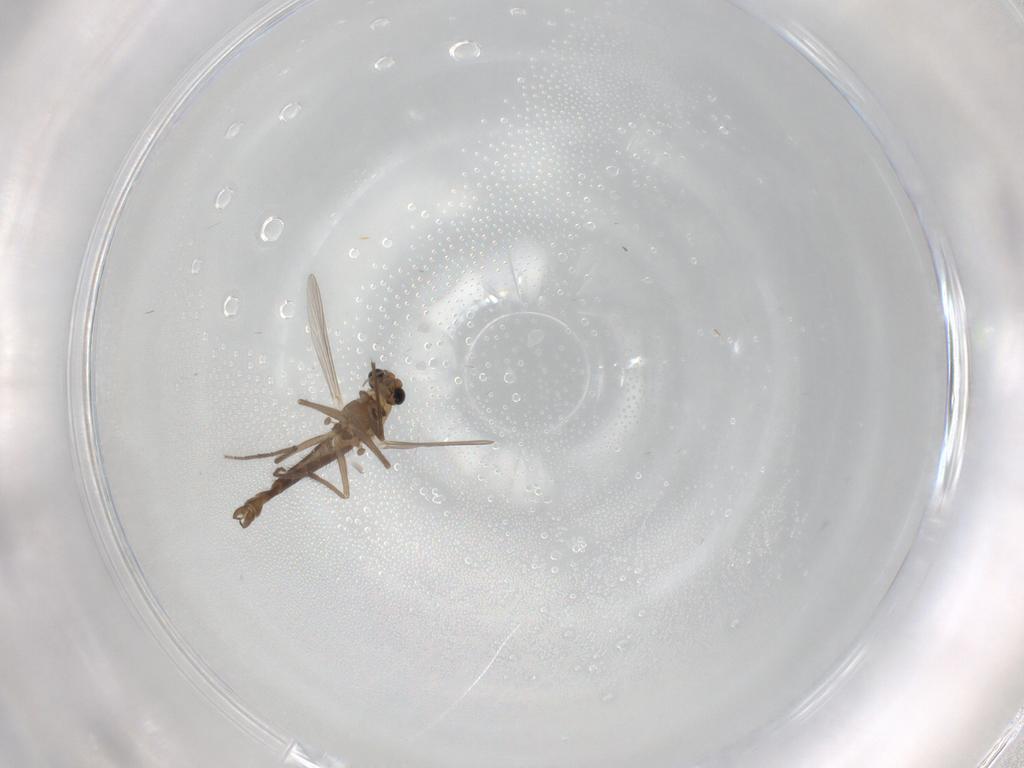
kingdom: Animalia
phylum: Arthropoda
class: Insecta
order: Diptera
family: Chironomidae
